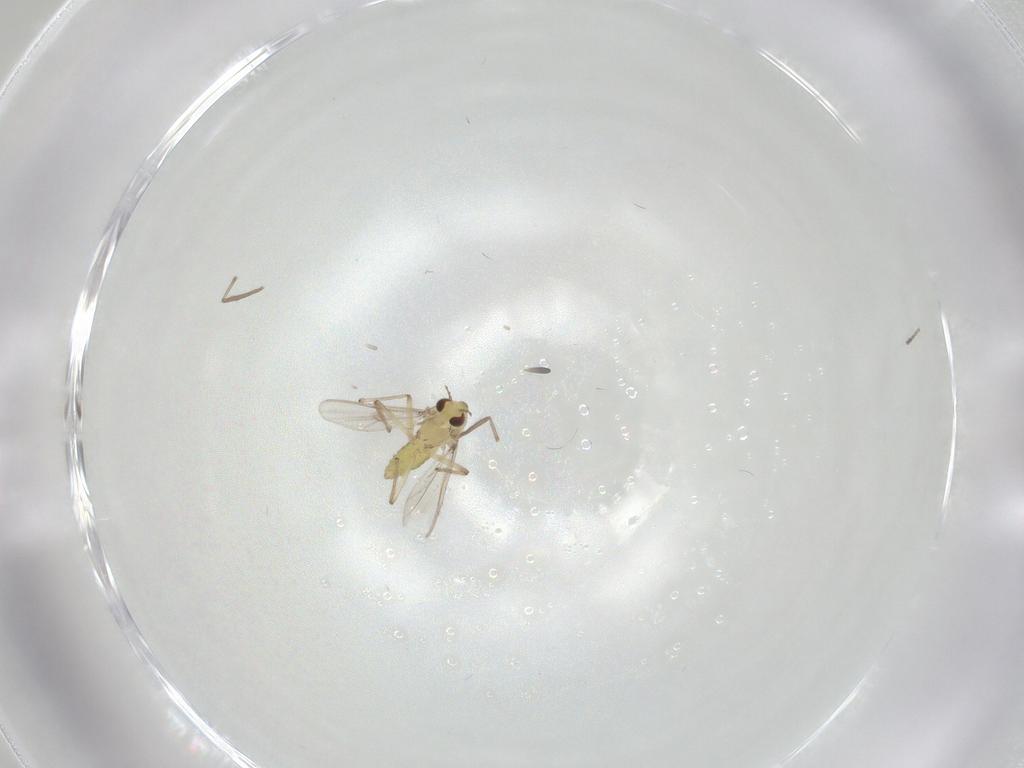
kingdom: Animalia
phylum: Arthropoda
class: Insecta
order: Diptera
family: Chironomidae
